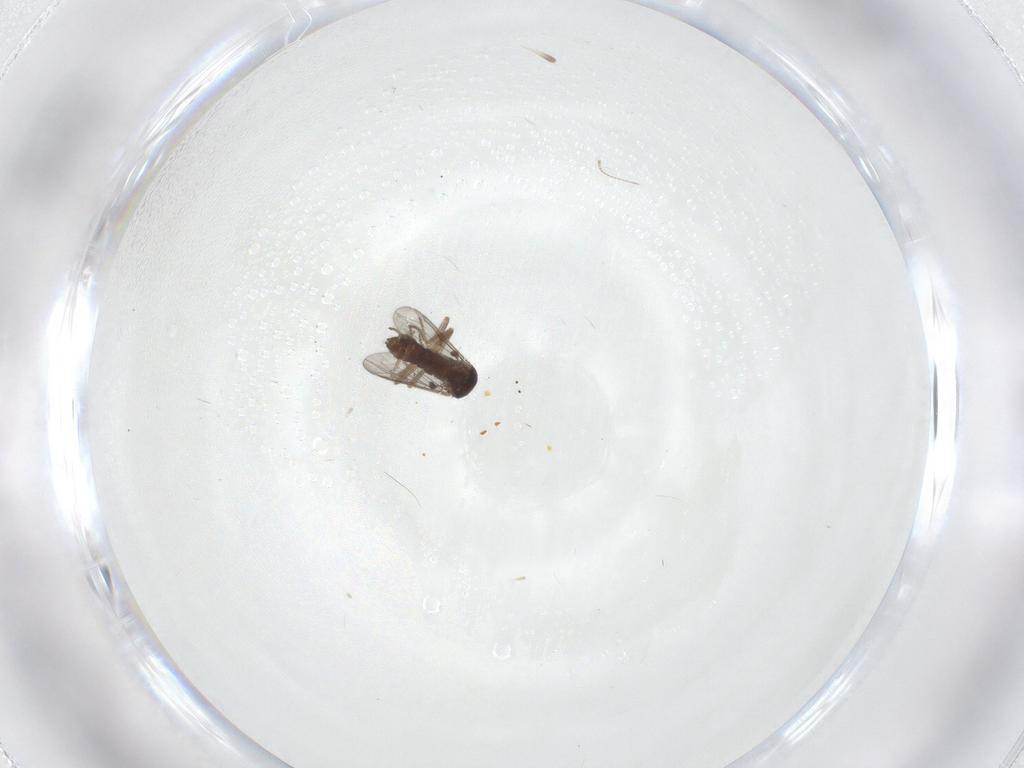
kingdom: Animalia
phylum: Arthropoda
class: Insecta
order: Diptera
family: Ceratopogonidae
